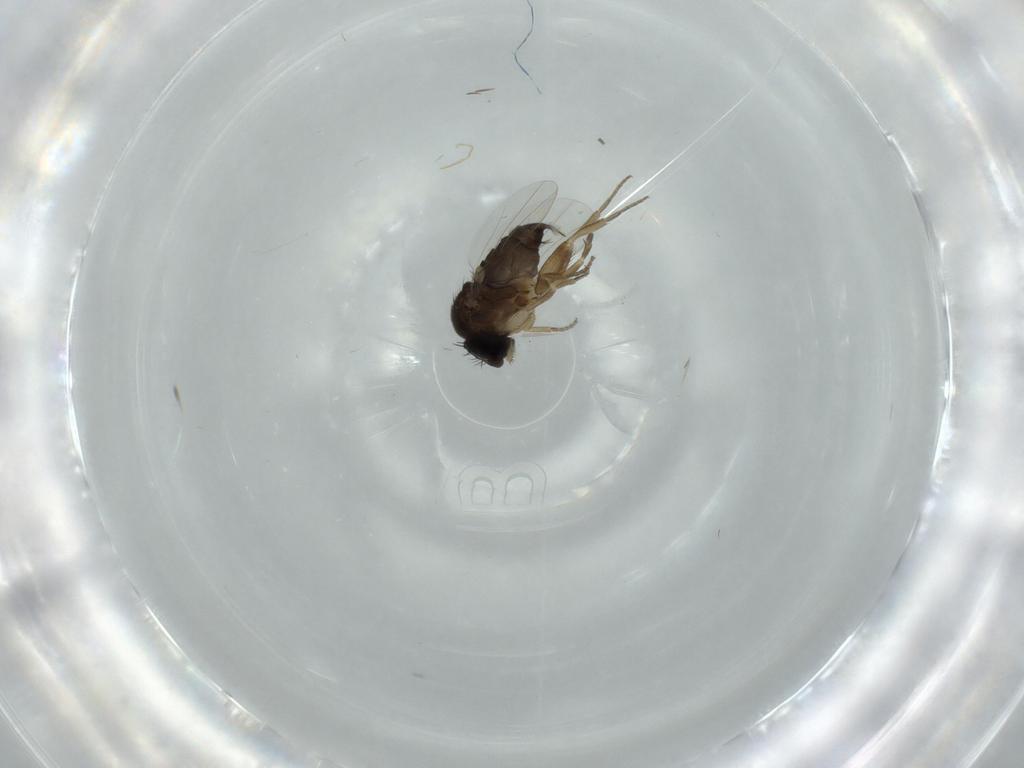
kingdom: Animalia
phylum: Arthropoda
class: Insecta
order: Diptera
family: Phoridae
